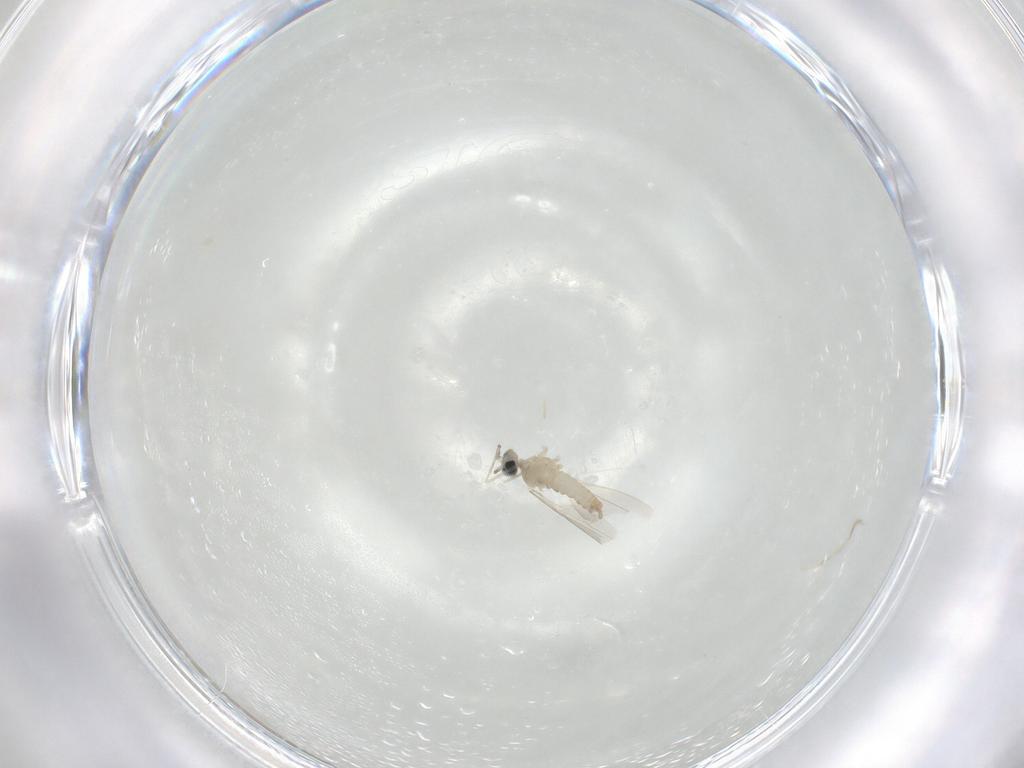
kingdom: Animalia
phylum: Arthropoda
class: Insecta
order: Diptera
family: Cecidomyiidae
